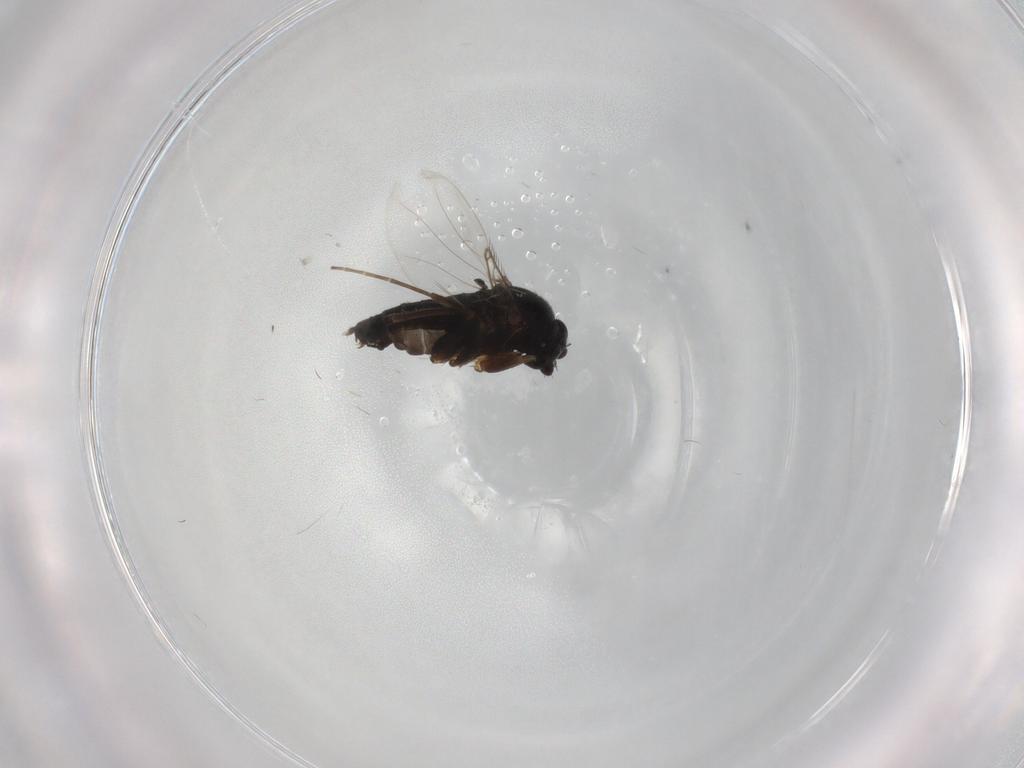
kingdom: Animalia
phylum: Arthropoda
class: Insecta
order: Diptera
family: Phoridae
